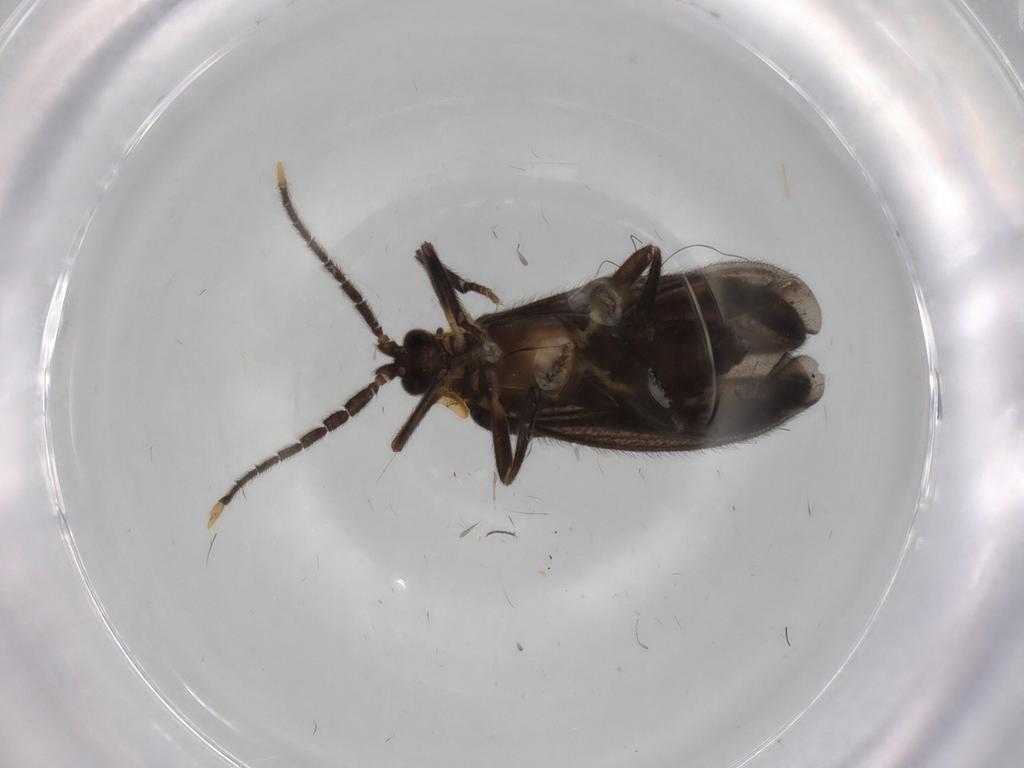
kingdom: Animalia
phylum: Arthropoda
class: Insecta
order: Coleoptera
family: Lycidae
